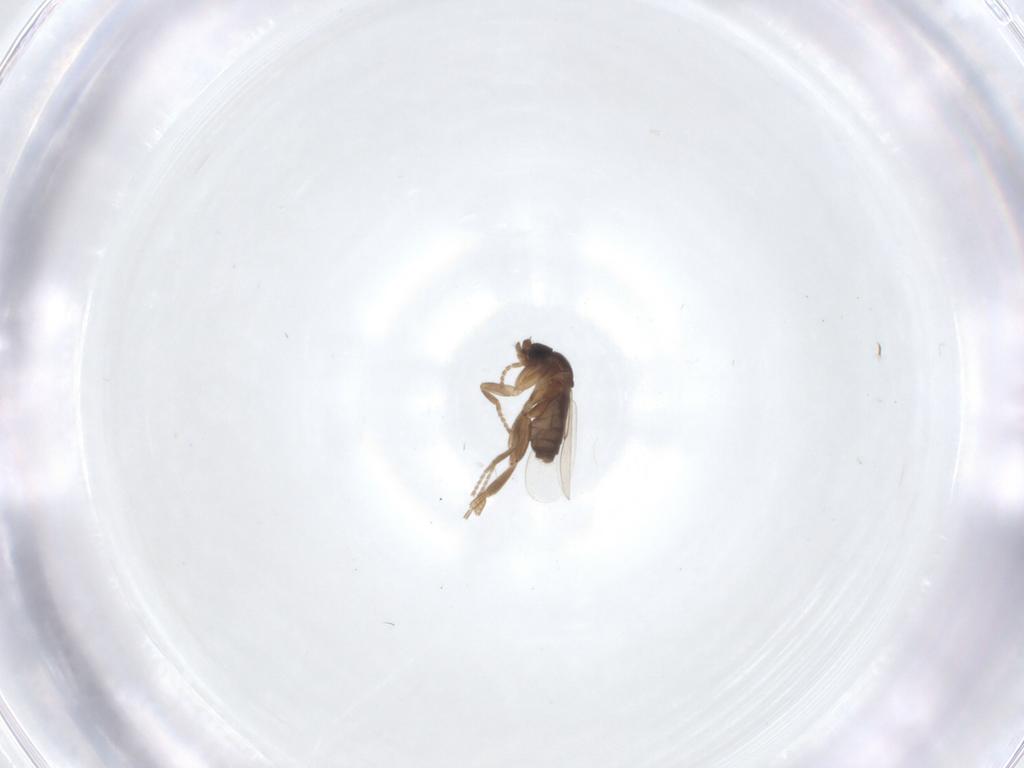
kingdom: Animalia
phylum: Arthropoda
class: Insecta
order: Diptera
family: Phoridae
